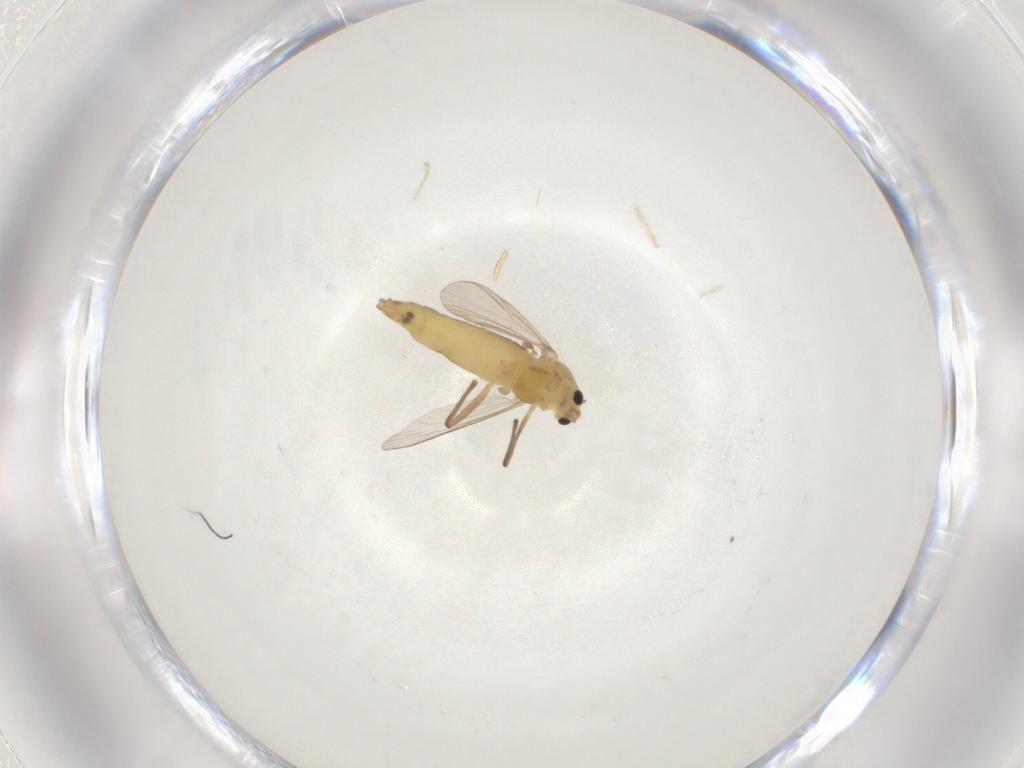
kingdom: Animalia
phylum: Arthropoda
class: Insecta
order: Diptera
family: Chironomidae
